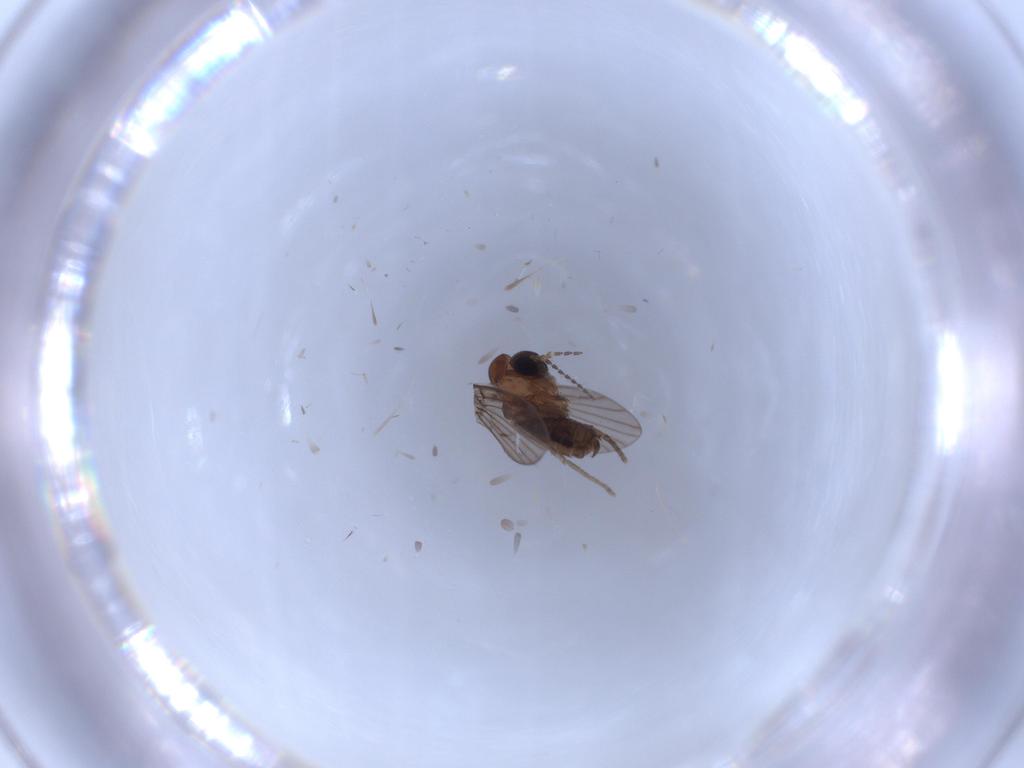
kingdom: Animalia
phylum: Arthropoda
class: Insecta
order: Diptera
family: Psychodidae
